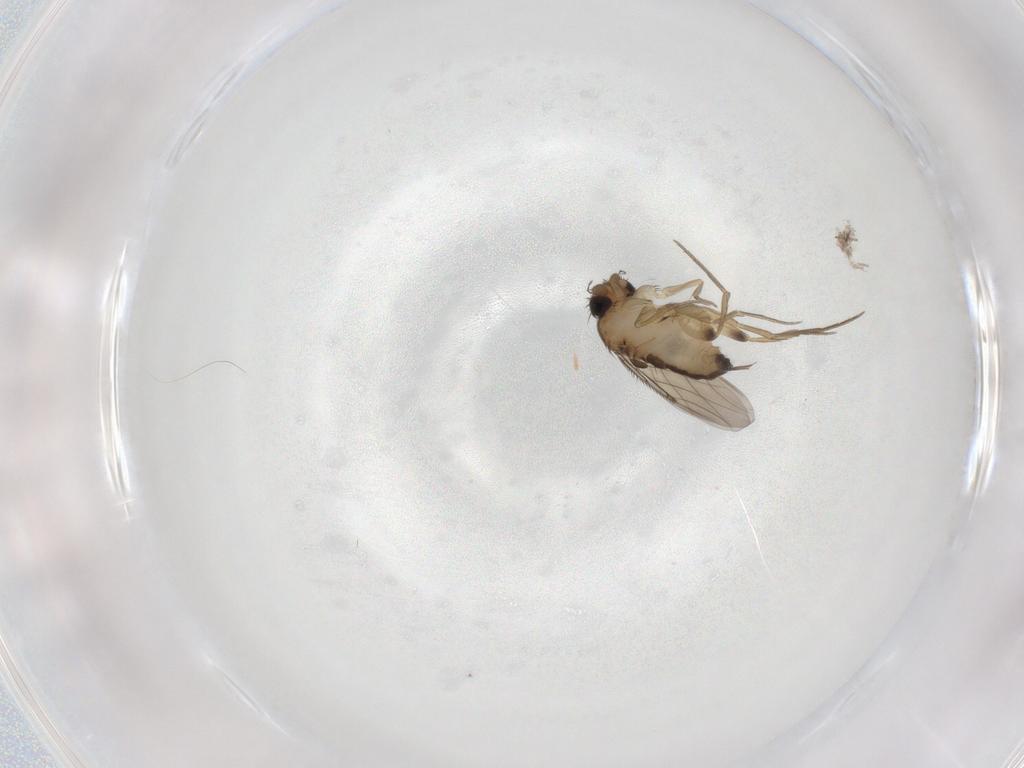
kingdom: Animalia
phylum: Arthropoda
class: Insecta
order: Diptera
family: Phoridae
